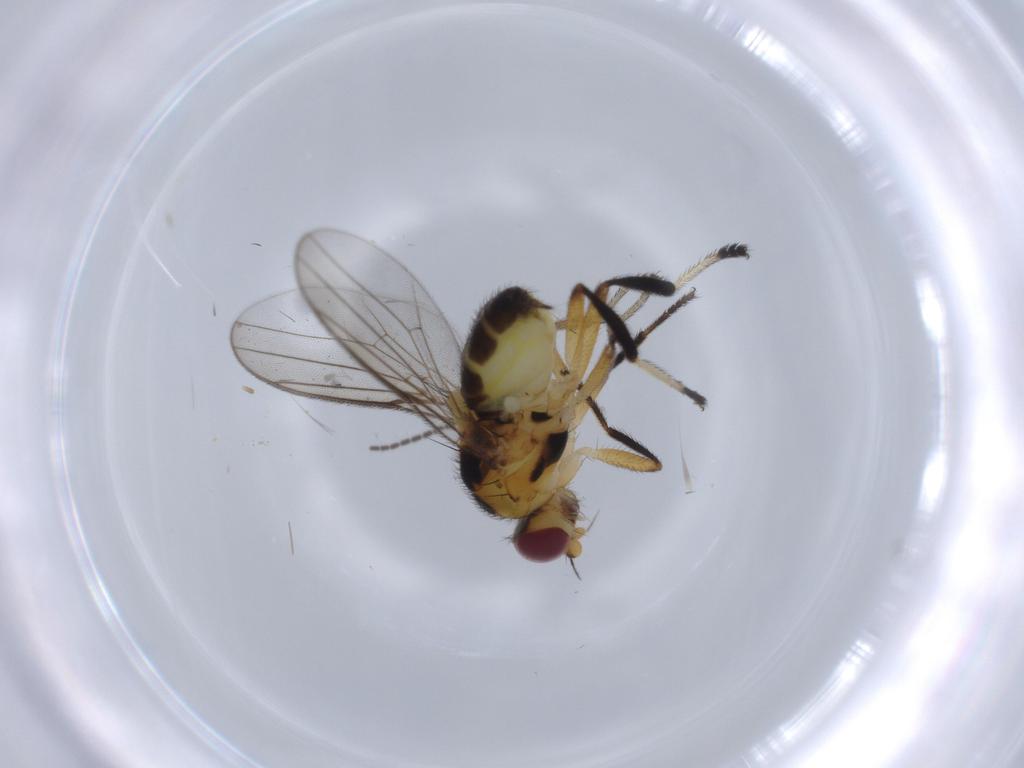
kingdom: Animalia
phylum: Arthropoda
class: Insecta
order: Diptera
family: Chloropidae
